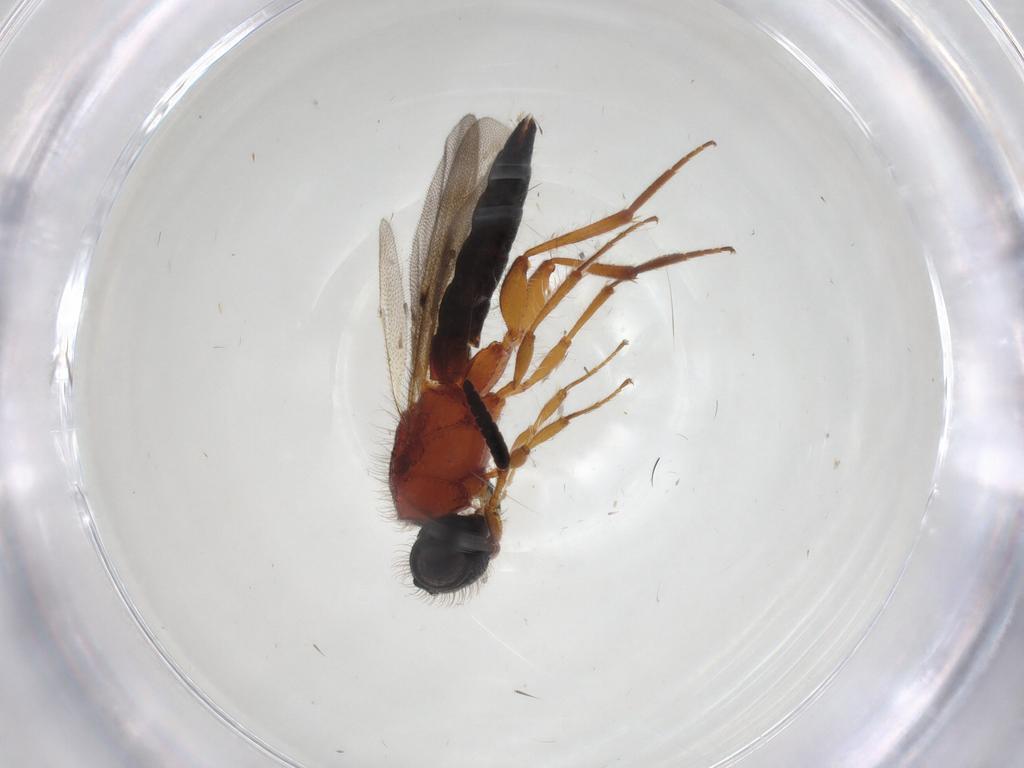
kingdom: Animalia
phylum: Arthropoda
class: Insecta
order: Hymenoptera
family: Scelionidae
